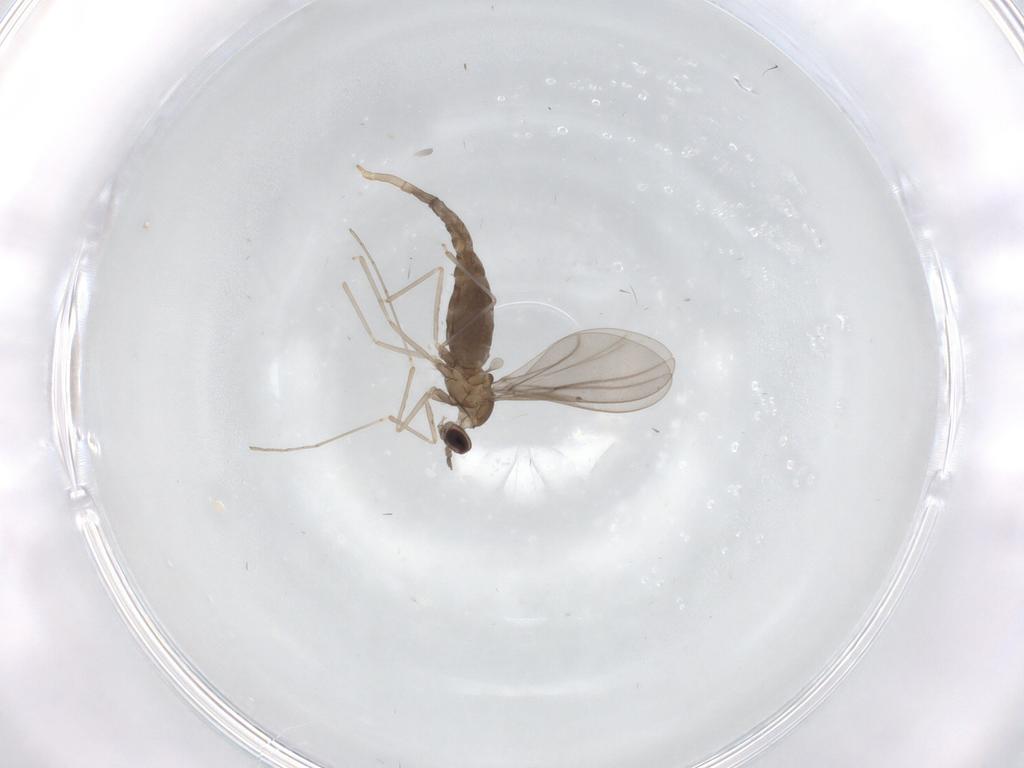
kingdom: Animalia
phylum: Arthropoda
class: Insecta
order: Diptera
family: Cecidomyiidae
